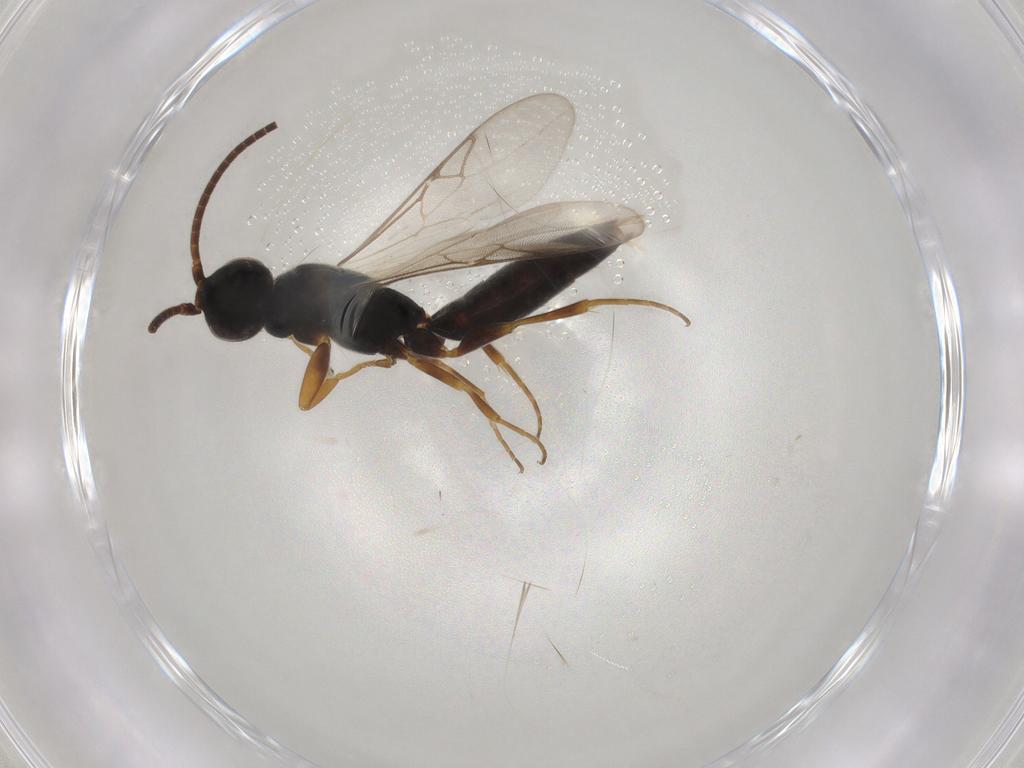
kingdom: Animalia
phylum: Arthropoda
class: Insecta
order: Hymenoptera
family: Sclerogibbidae
